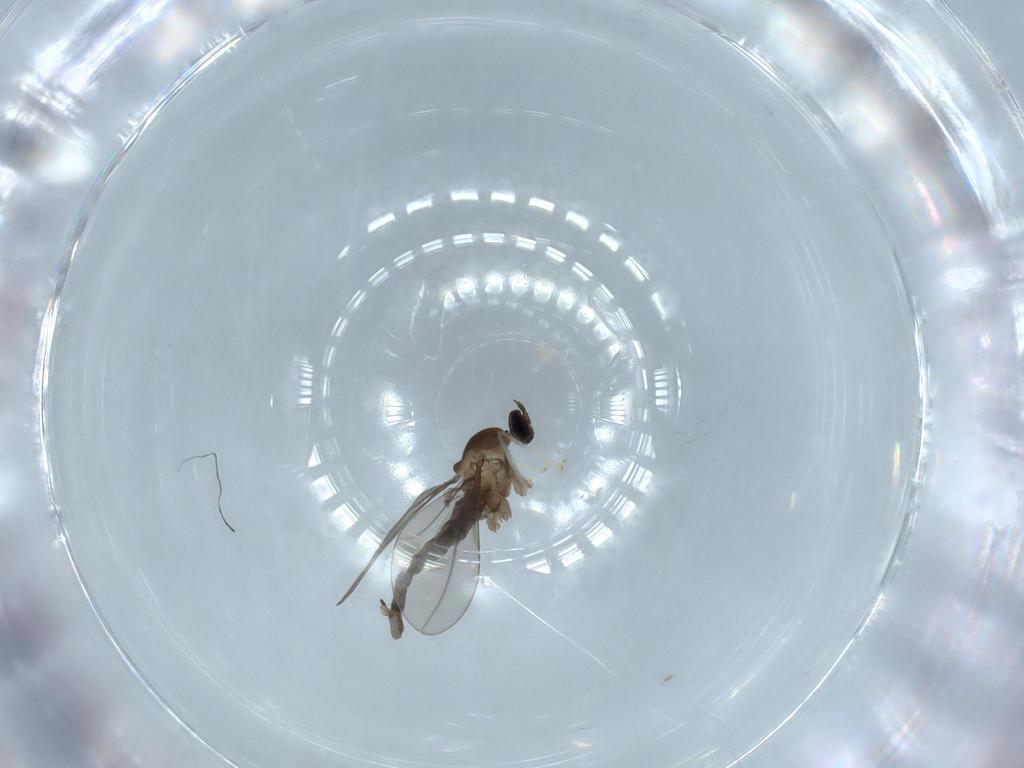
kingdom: Animalia
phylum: Arthropoda
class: Insecta
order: Diptera
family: Cecidomyiidae
